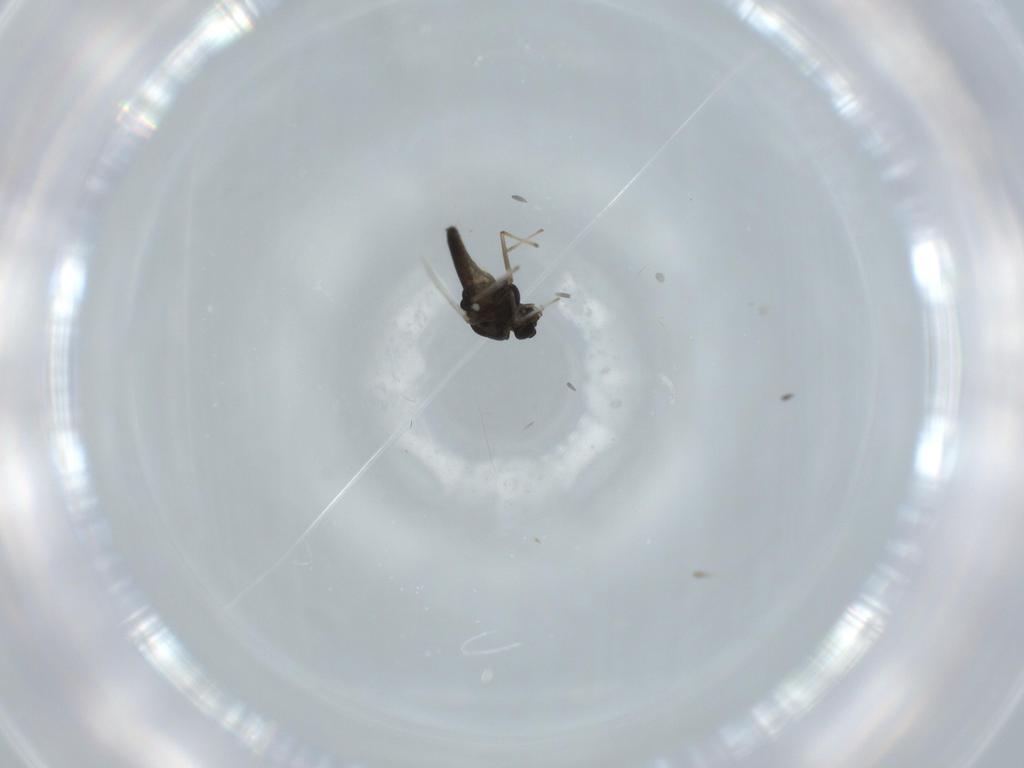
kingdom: Animalia
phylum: Arthropoda
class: Insecta
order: Diptera
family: Chironomidae
